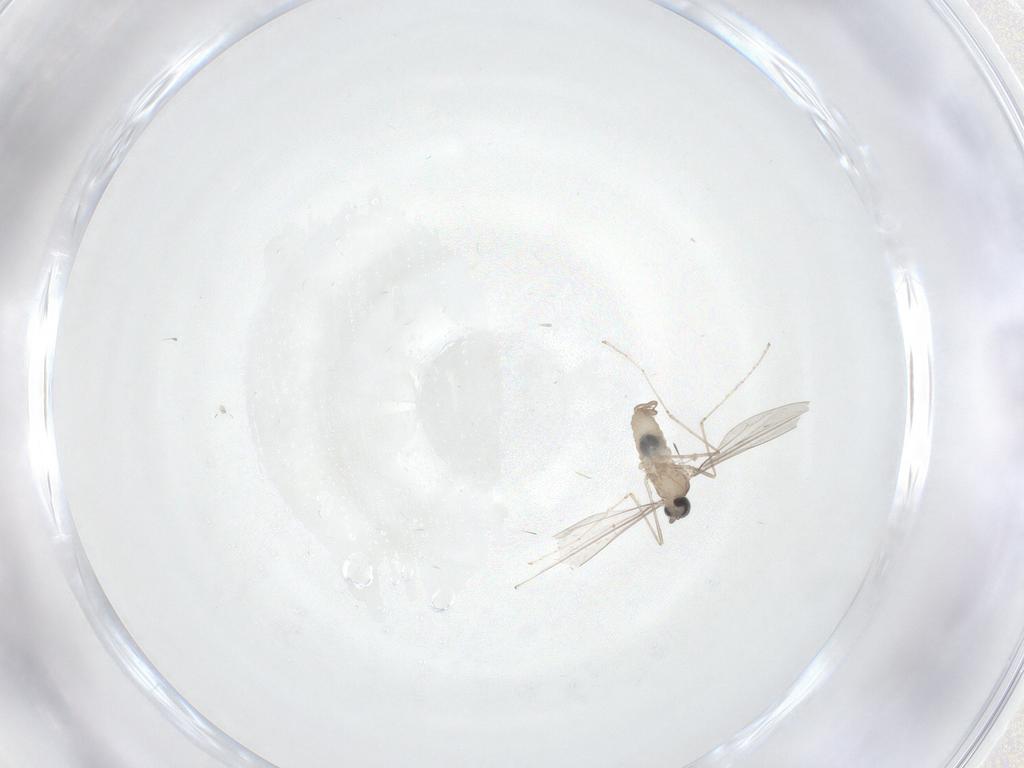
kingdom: Animalia
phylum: Arthropoda
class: Insecta
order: Diptera
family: Cecidomyiidae
